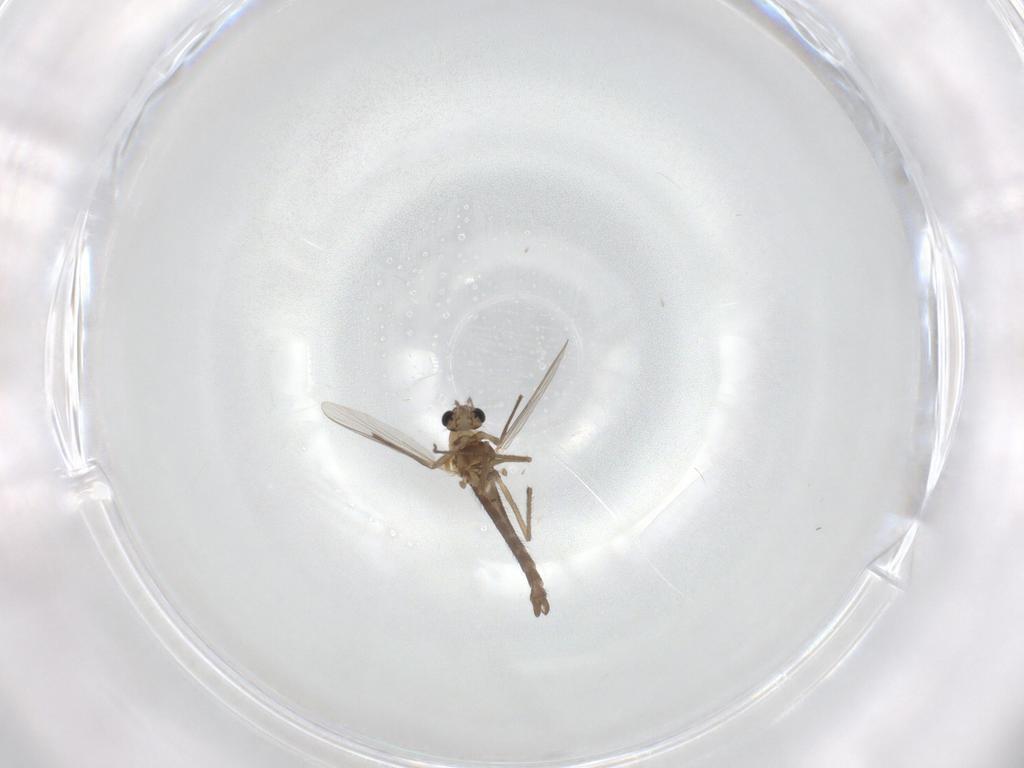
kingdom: Animalia
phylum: Arthropoda
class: Insecta
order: Diptera
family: Chironomidae
